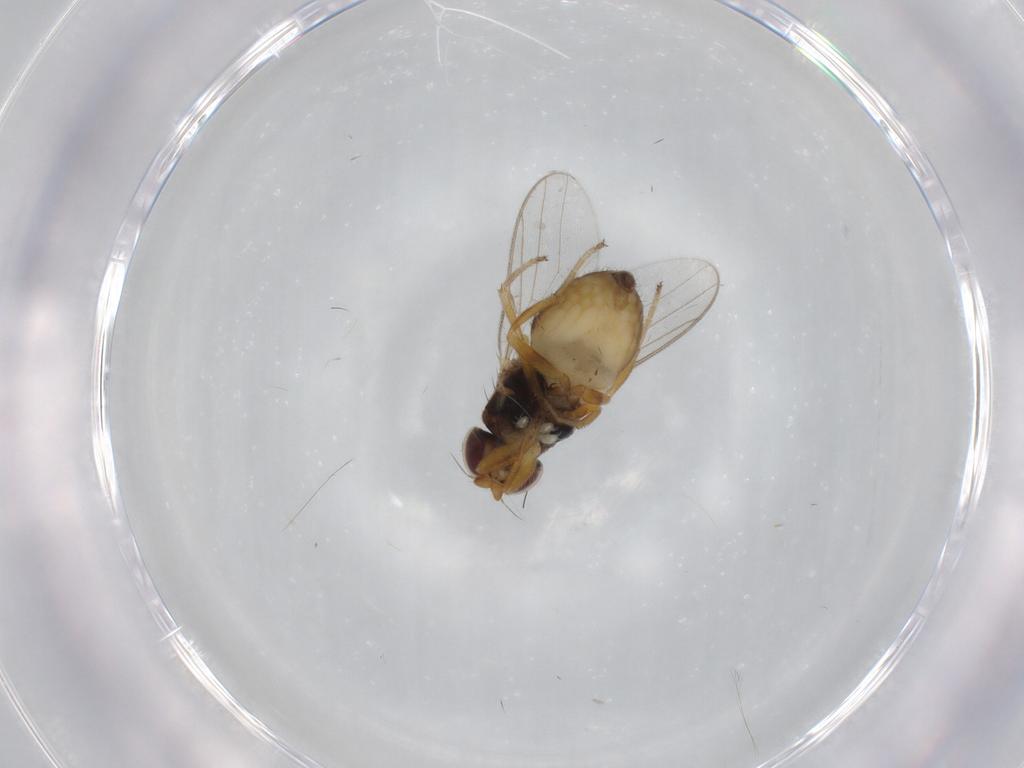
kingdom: Animalia
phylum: Arthropoda
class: Insecta
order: Diptera
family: Chloropidae
